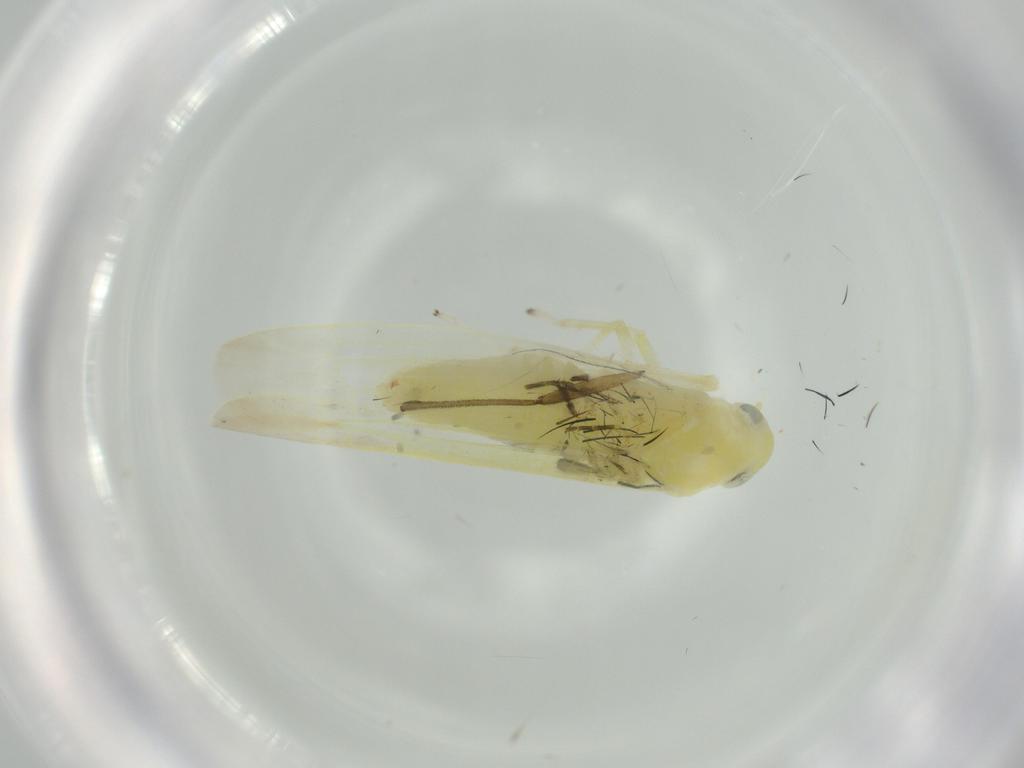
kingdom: Animalia
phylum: Arthropoda
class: Insecta
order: Hemiptera
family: Cicadellidae
